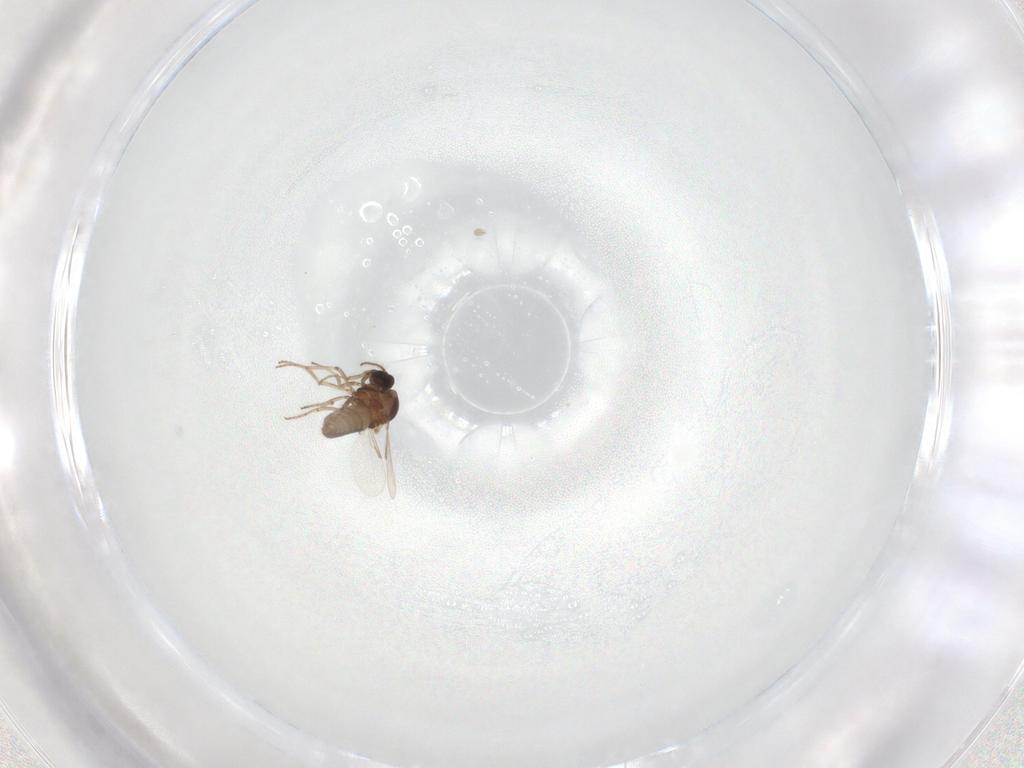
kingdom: Animalia
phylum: Arthropoda
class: Insecta
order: Diptera
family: Ceratopogonidae
